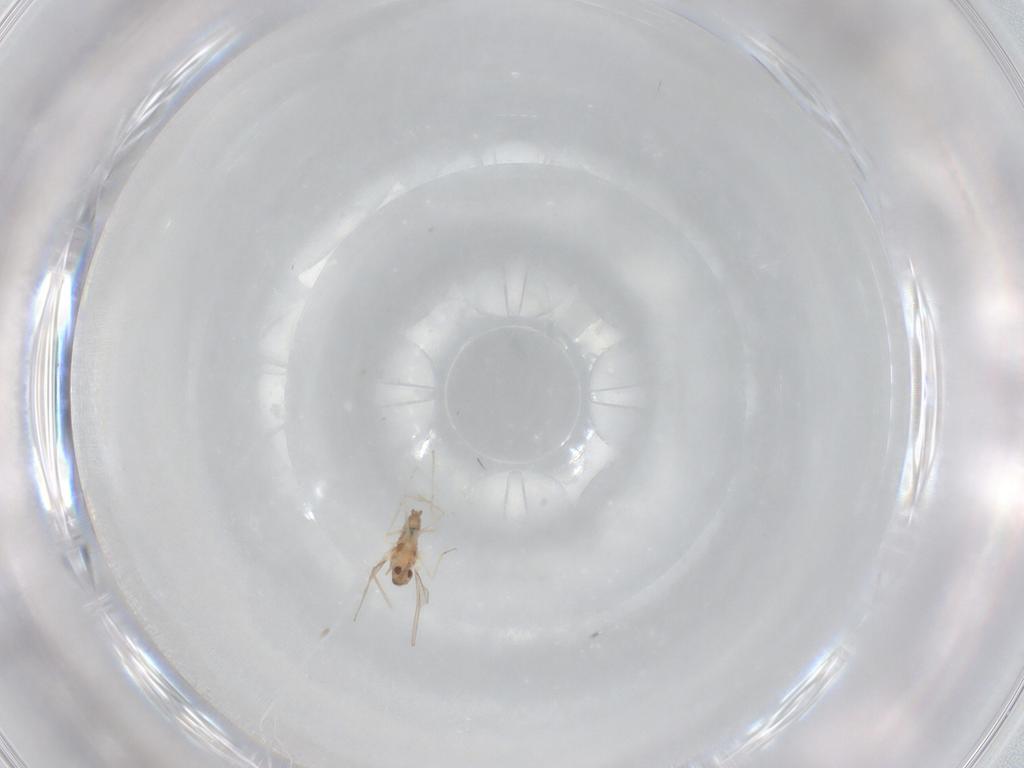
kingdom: Animalia
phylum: Arthropoda
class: Insecta
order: Diptera
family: Cecidomyiidae
